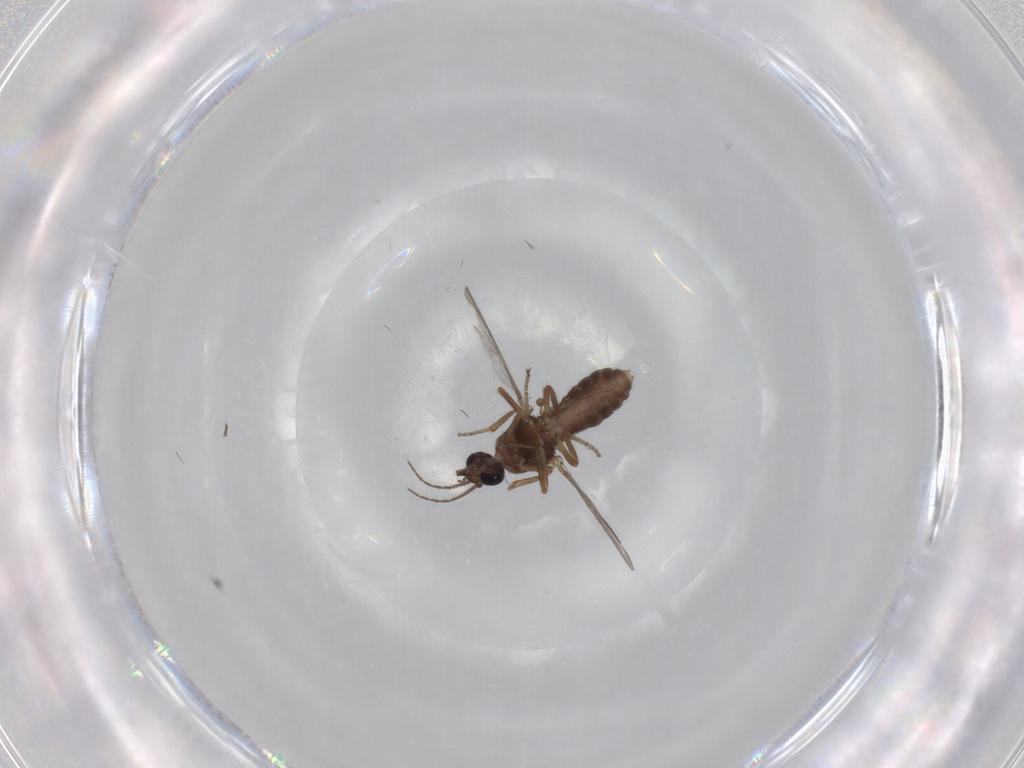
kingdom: Animalia
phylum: Arthropoda
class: Insecta
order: Diptera
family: Ceratopogonidae
